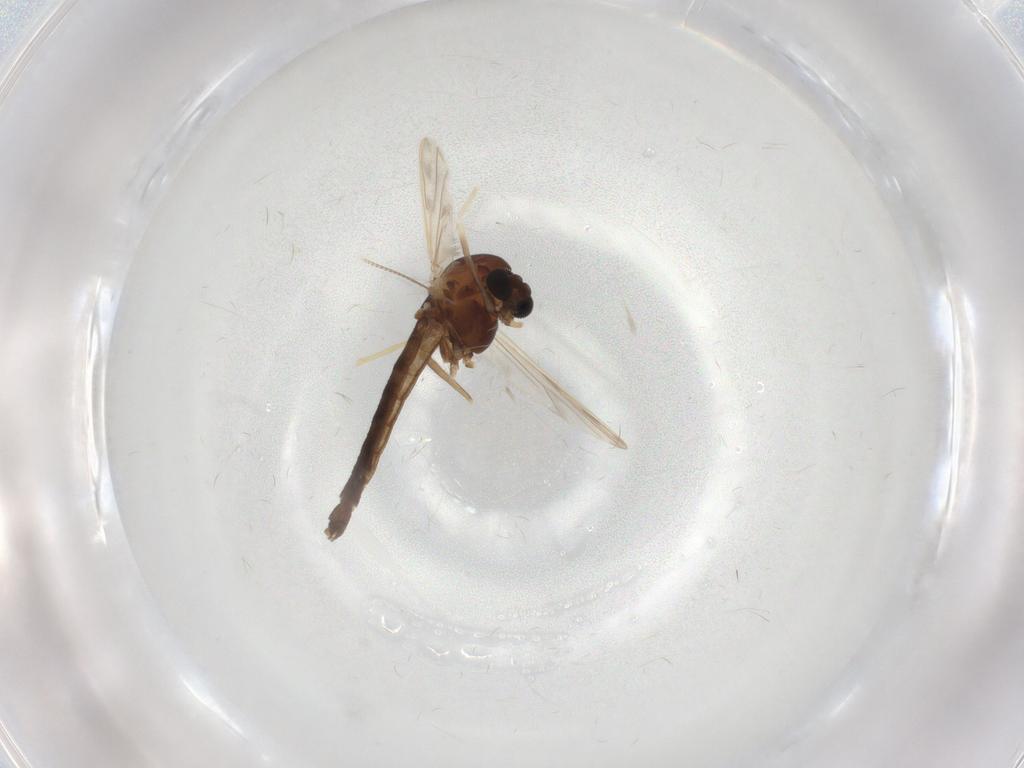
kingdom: Animalia
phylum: Arthropoda
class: Insecta
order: Diptera
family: Chironomidae
